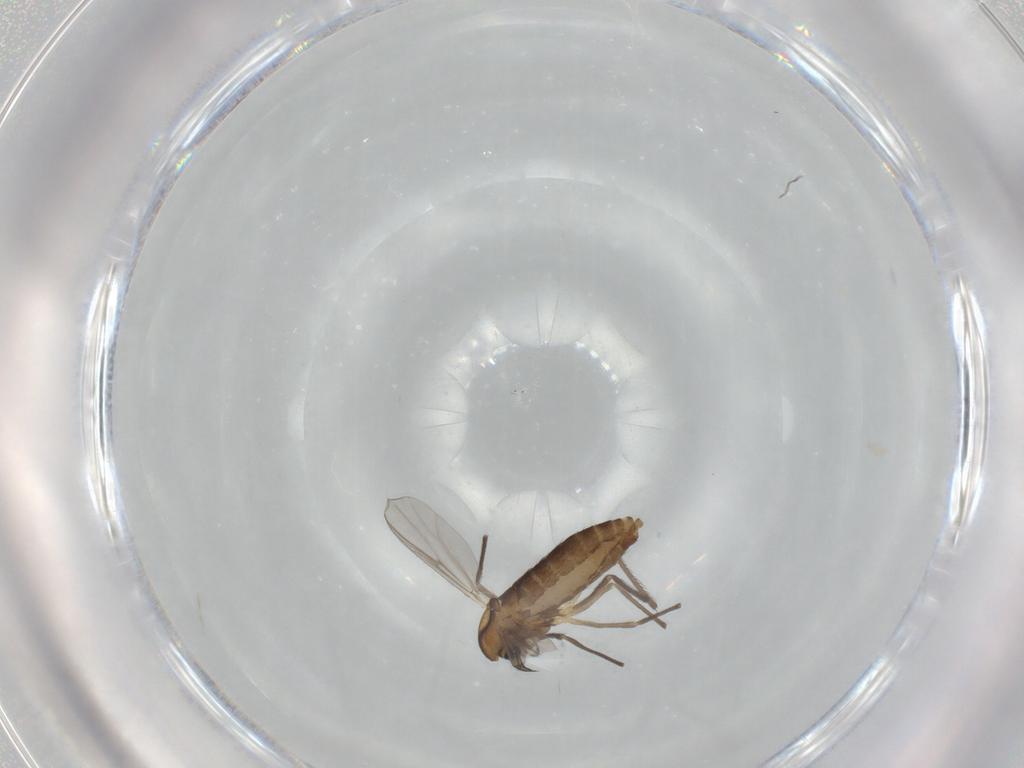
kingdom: Animalia
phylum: Arthropoda
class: Insecta
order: Diptera
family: Chironomidae
